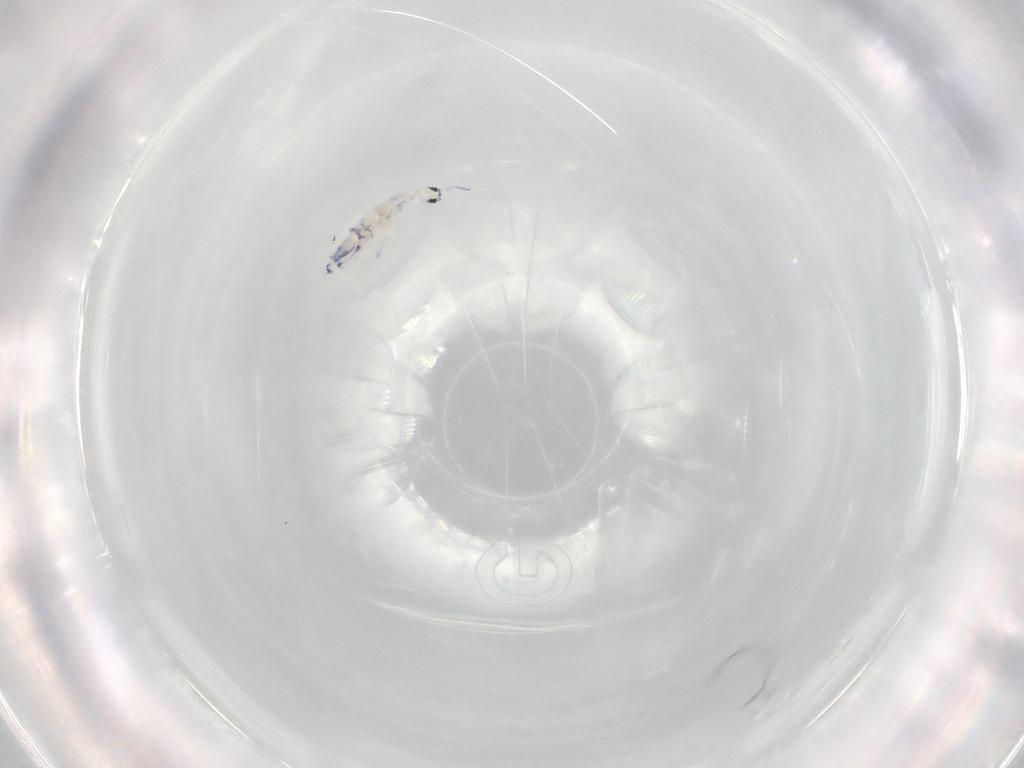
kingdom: Animalia
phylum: Arthropoda
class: Collembola
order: Entomobryomorpha
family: Entomobryidae
